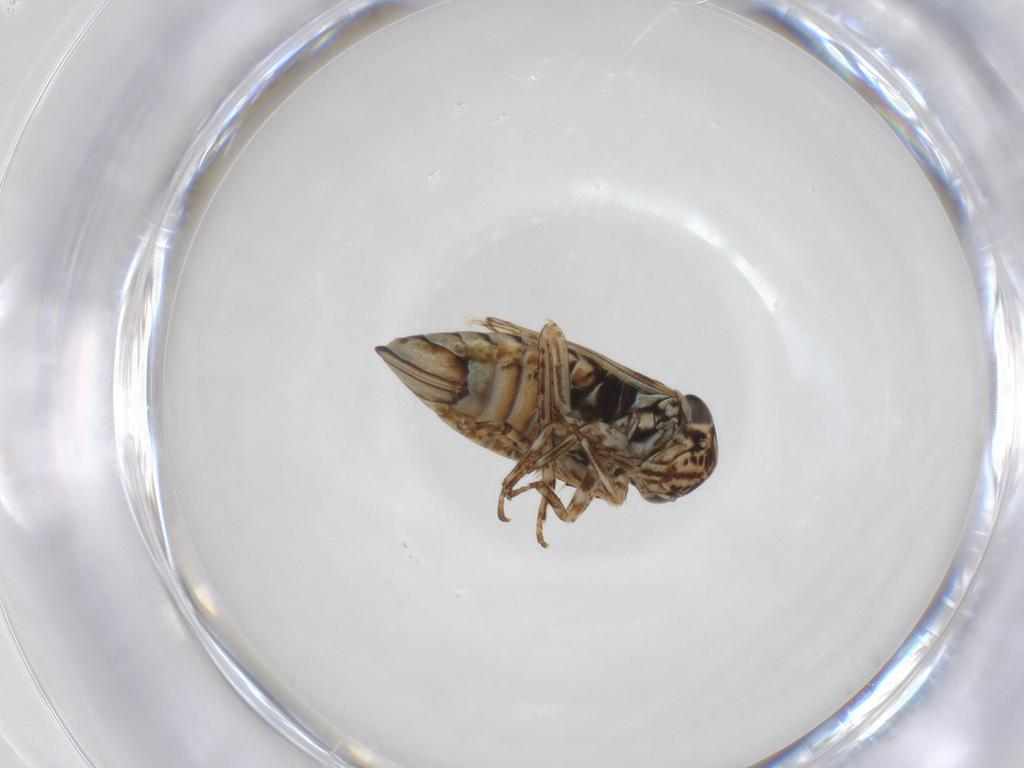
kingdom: Animalia
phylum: Arthropoda
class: Insecta
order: Hemiptera
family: Cicadellidae
